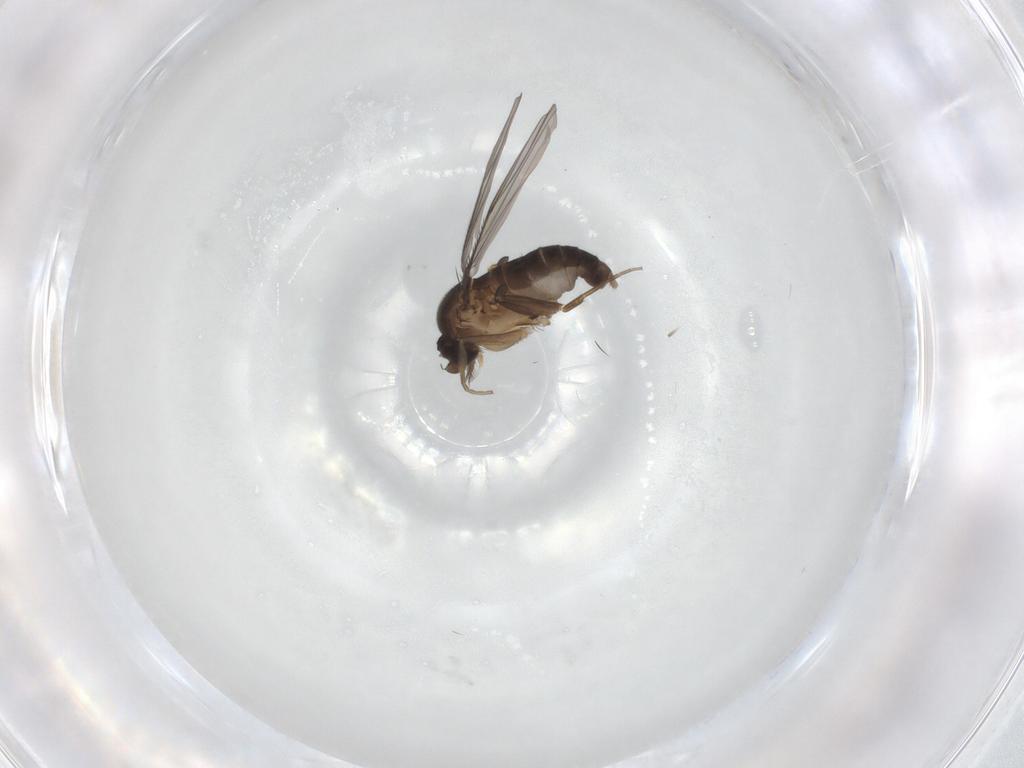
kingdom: Animalia
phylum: Arthropoda
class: Insecta
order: Diptera
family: Phoridae
